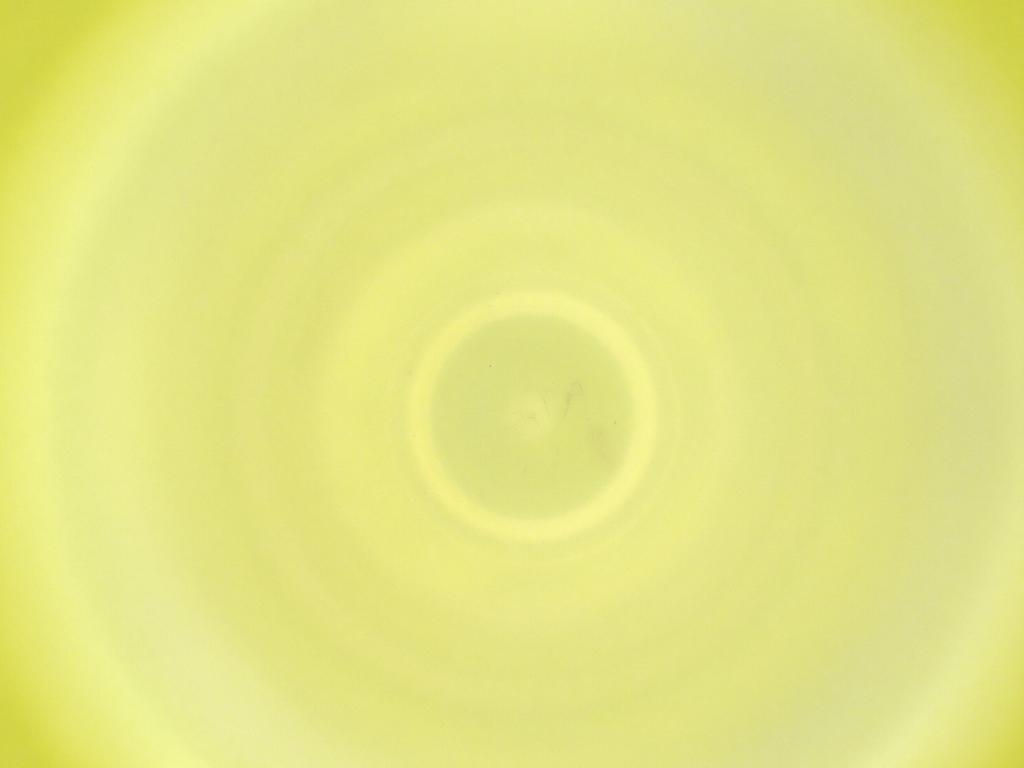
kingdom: Animalia
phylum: Arthropoda
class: Insecta
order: Diptera
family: Cecidomyiidae
